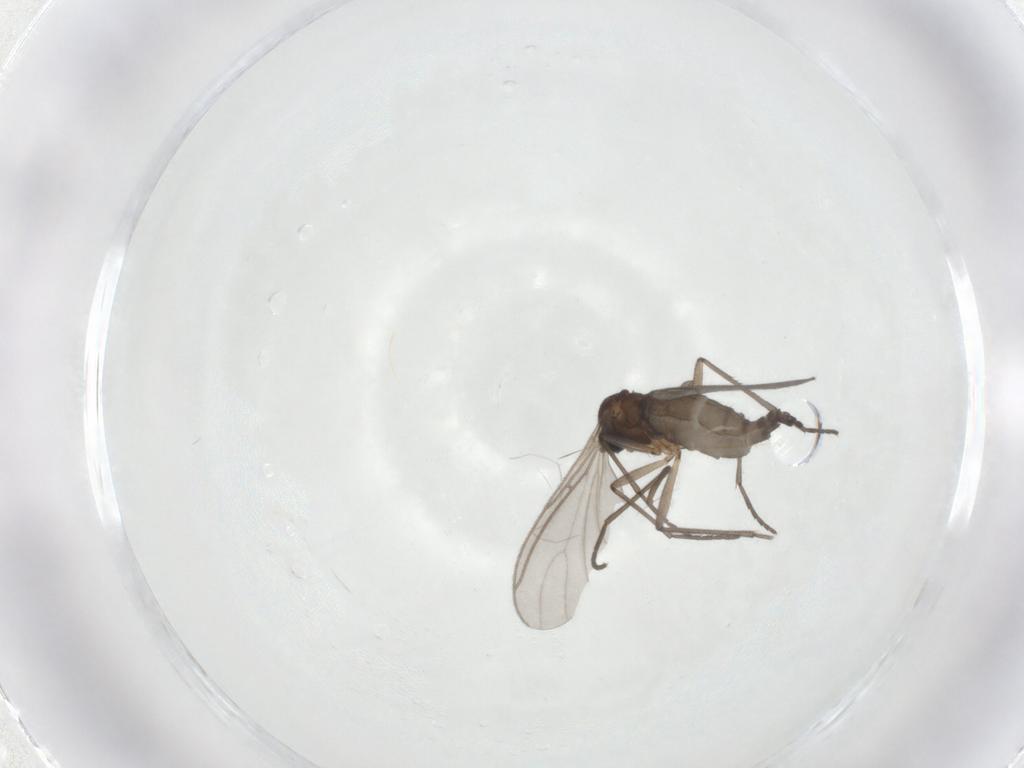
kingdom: Animalia
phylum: Arthropoda
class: Insecta
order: Diptera
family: Sciaridae
